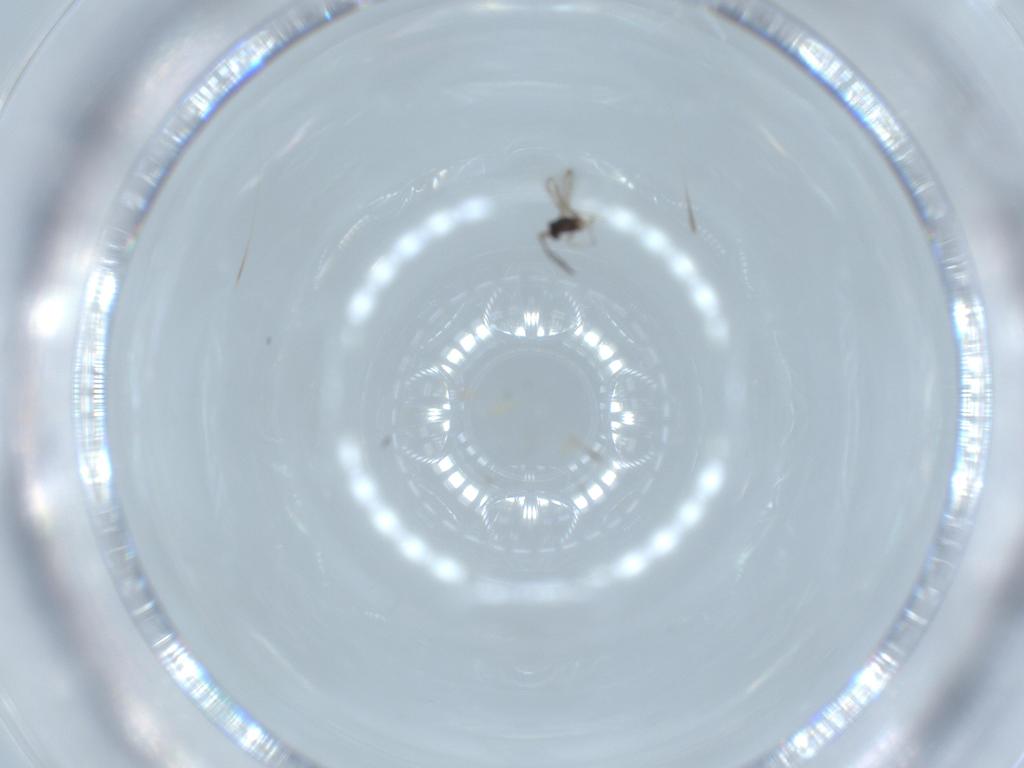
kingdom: Animalia
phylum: Arthropoda
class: Insecta
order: Hymenoptera
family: Mymaridae
